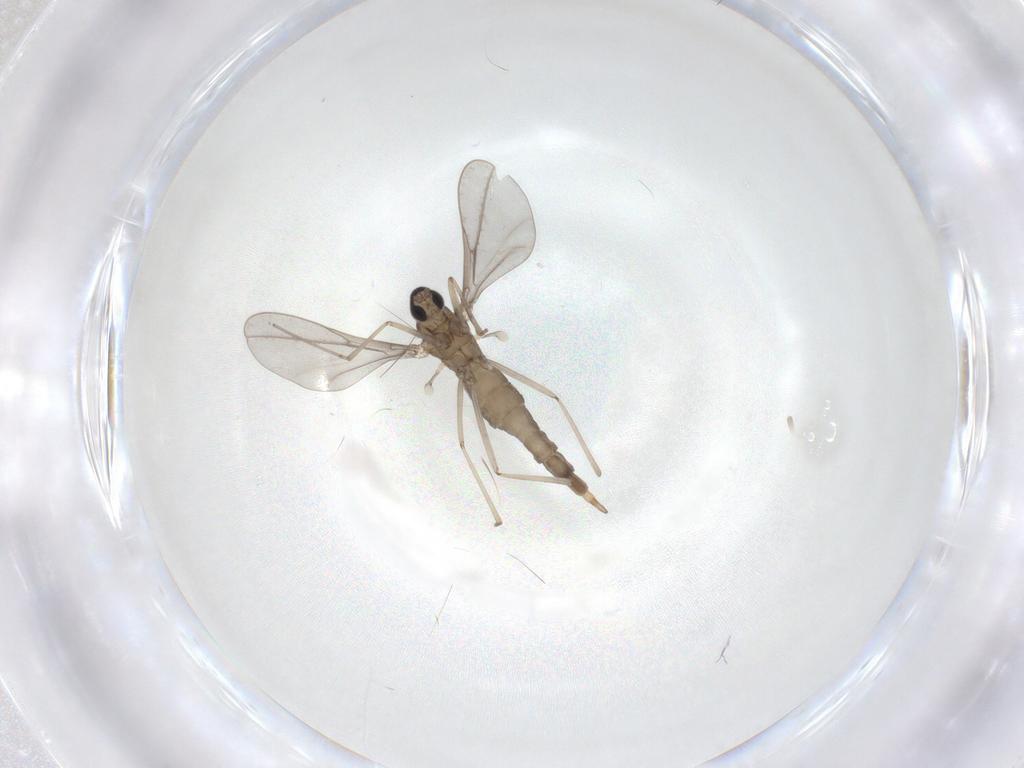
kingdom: Animalia
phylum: Arthropoda
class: Insecta
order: Diptera
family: Cecidomyiidae
